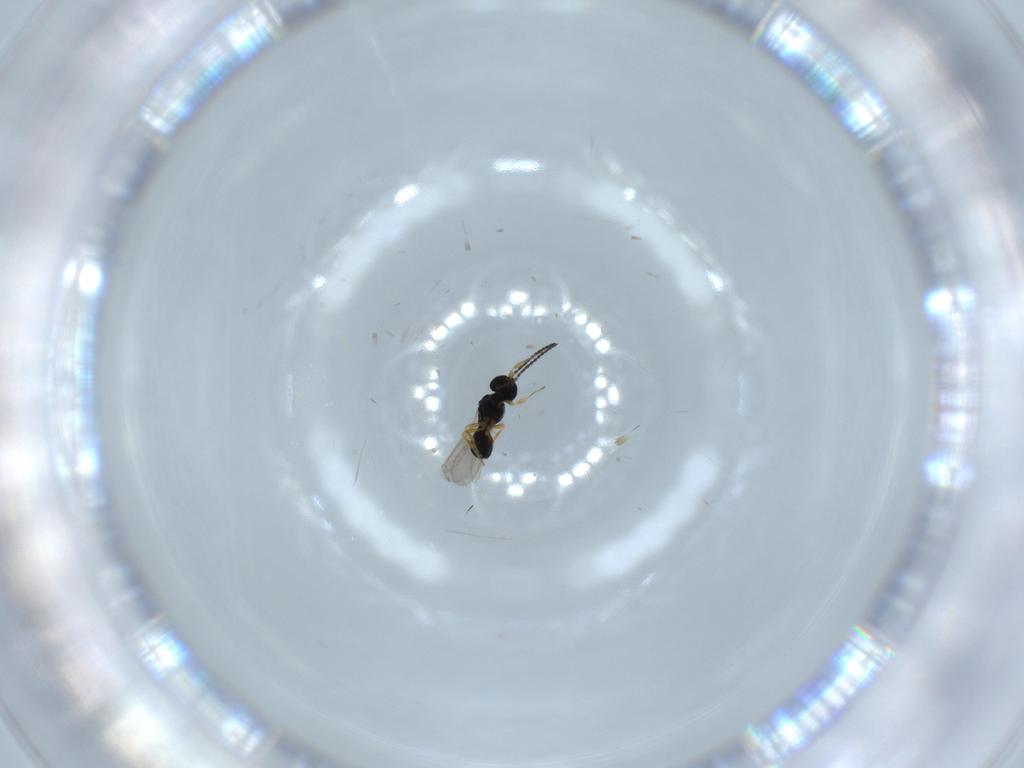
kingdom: Animalia
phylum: Arthropoda
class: Insecta
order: Hymenoptera
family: Scelionidae
